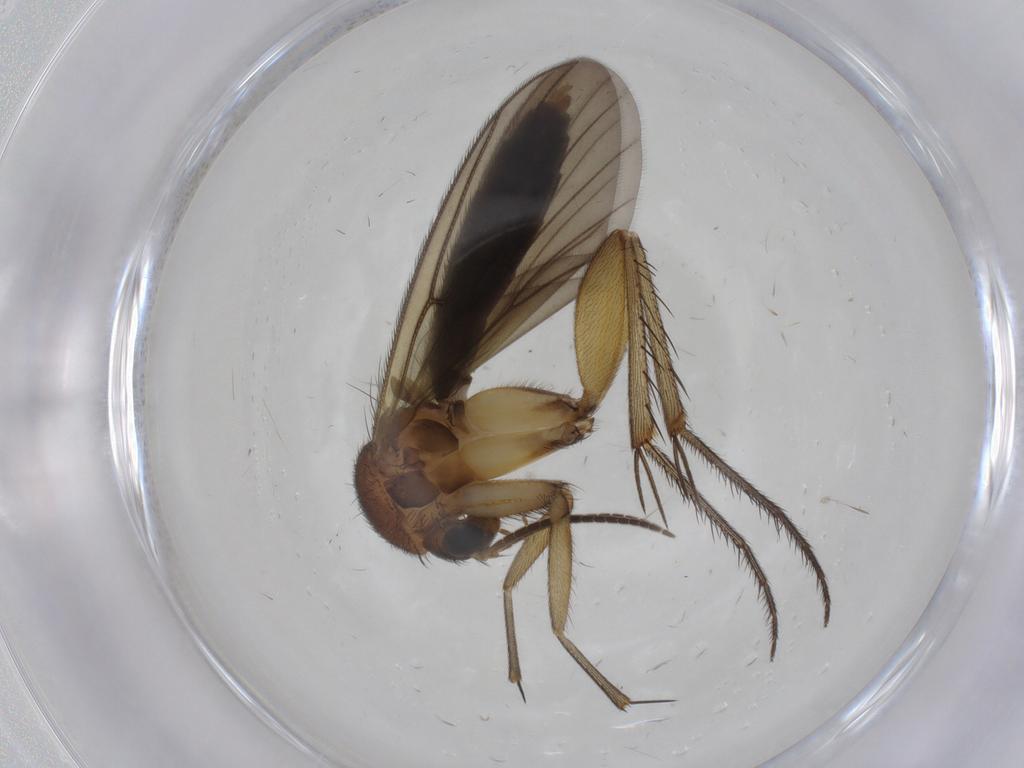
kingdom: Animalia
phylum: Arthropoda
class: Insecta
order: Diptera
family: Mycetophilidae
